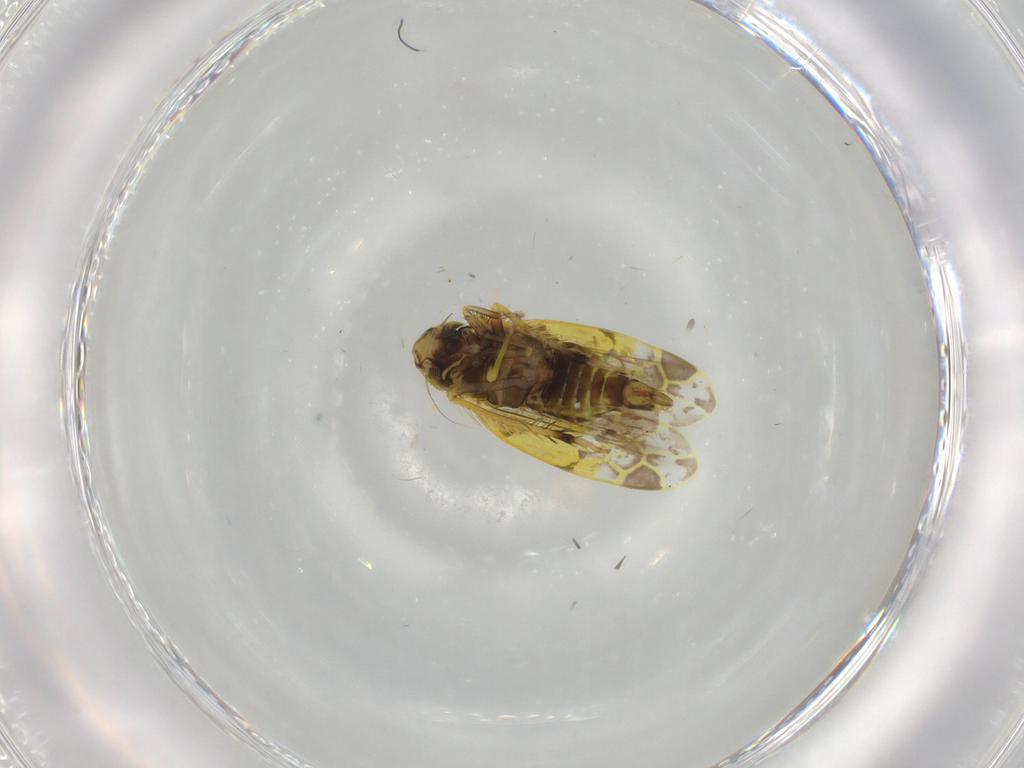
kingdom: Animalia
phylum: Arthropoda
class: Insecta
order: Hemiptera
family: Cicadellidae
